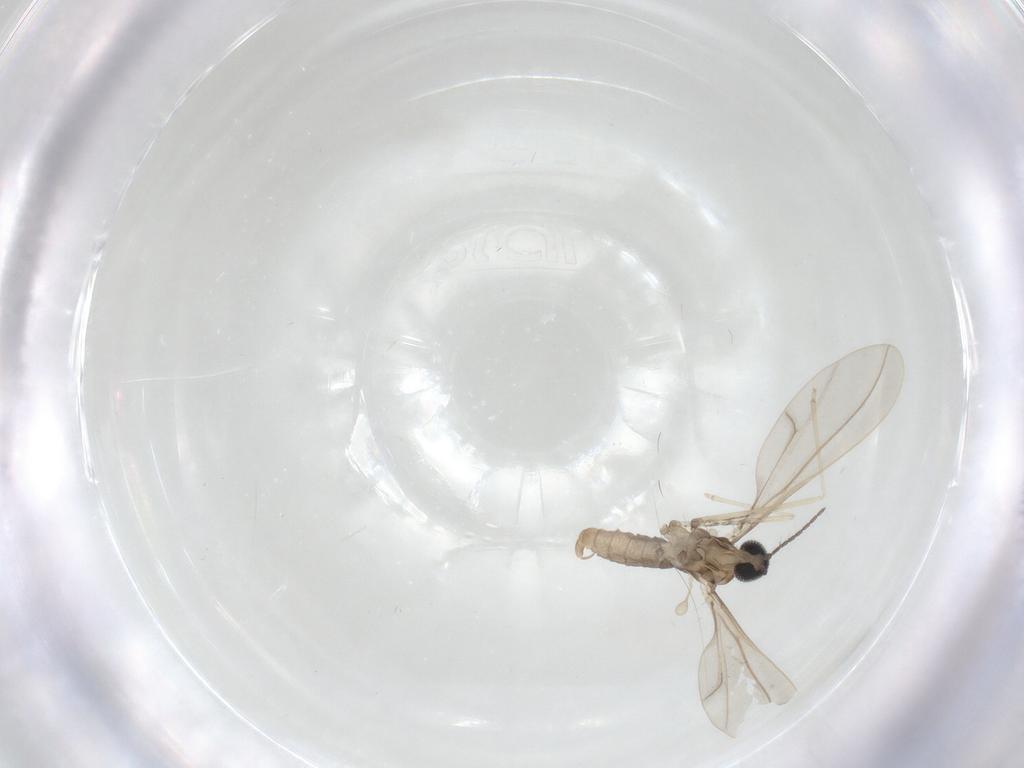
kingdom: Animalia
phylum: Arthropoda
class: Insecta
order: Diptera
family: Cecidomyiidae
